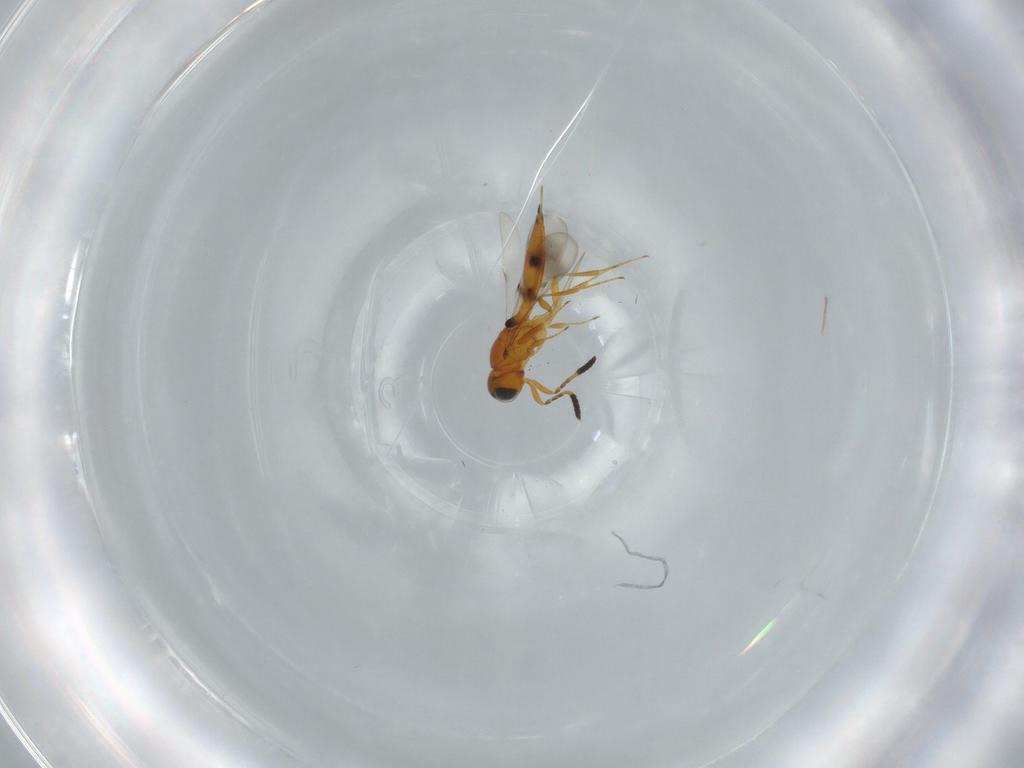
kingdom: Animalia
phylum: Arthropoda
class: Insecta
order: Hymenoptera
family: Scelionidae
